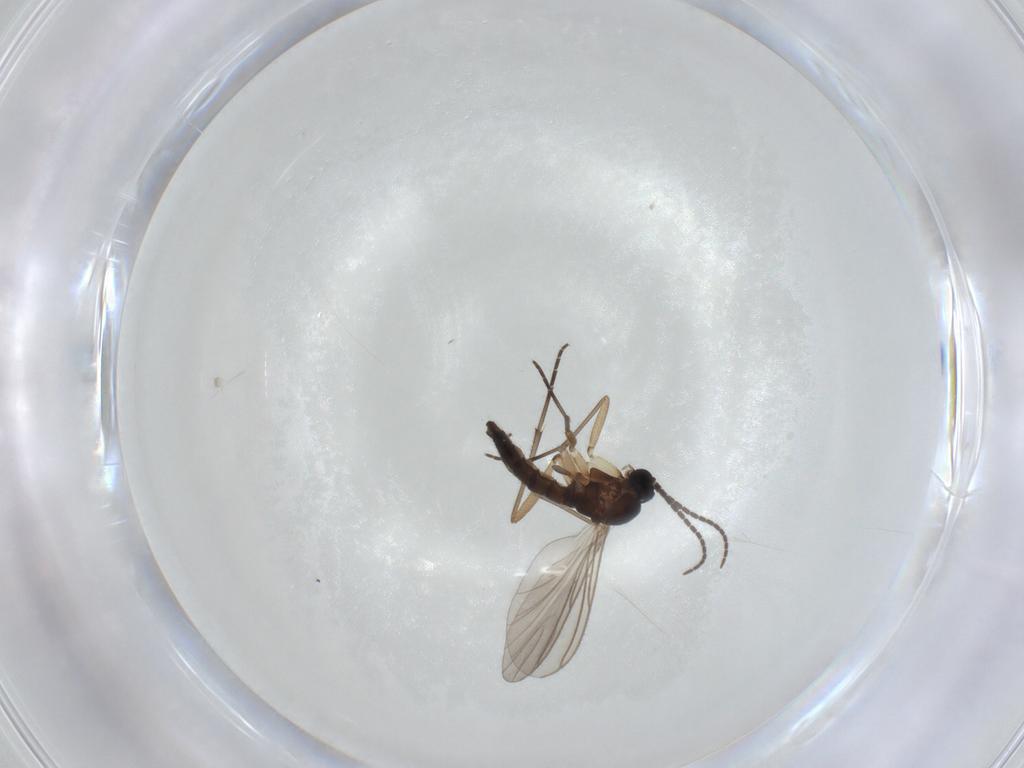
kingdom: Animalia
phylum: Arthropoda
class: Insecta
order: Diptera
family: Sciaridae
